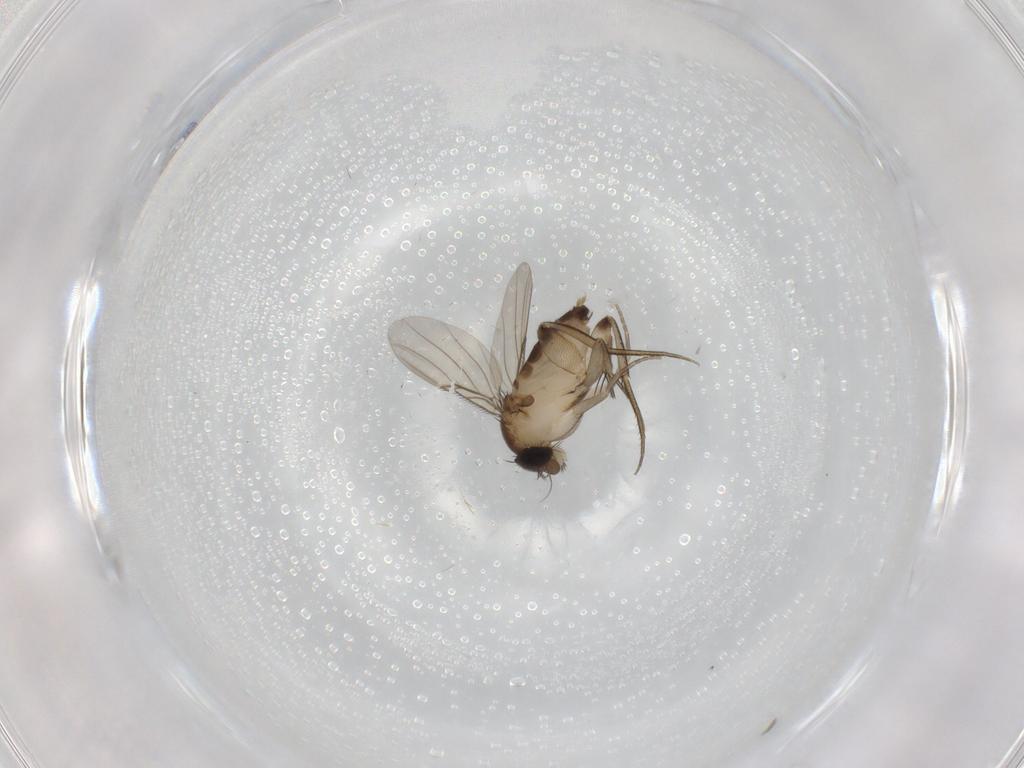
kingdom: Animalia
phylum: Arthropoda
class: Insecta
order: Diptera
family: Phoridae
